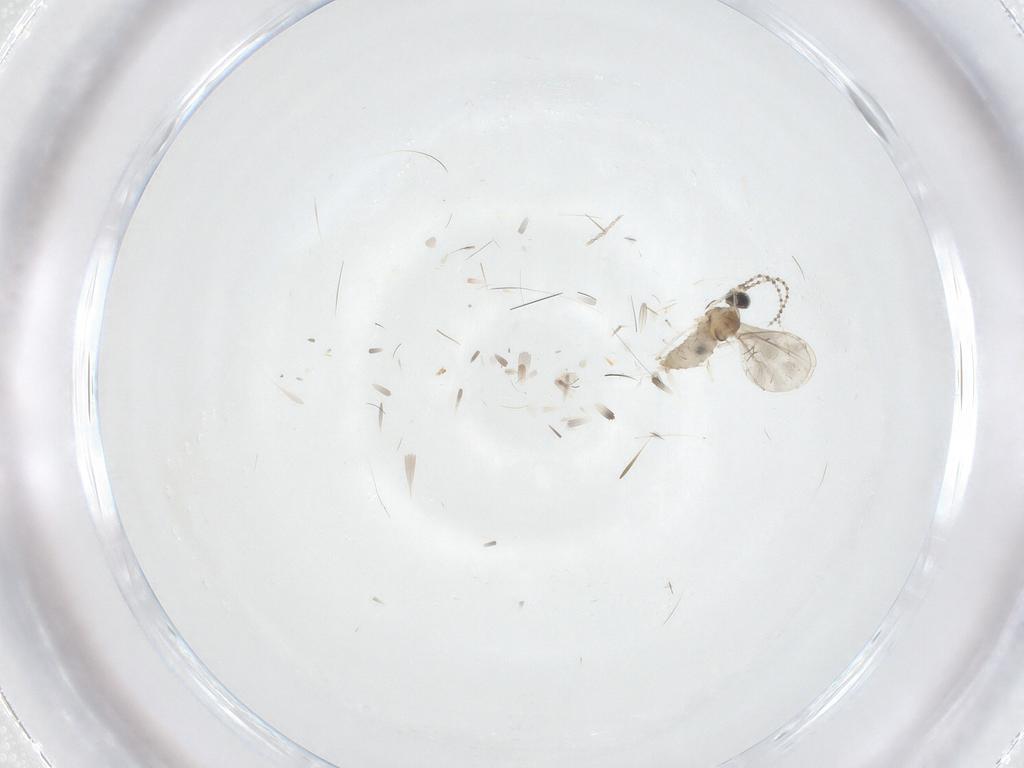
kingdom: Animalia
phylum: Arthropoda
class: Insecta
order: Diptera
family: Cecidomyiidae
